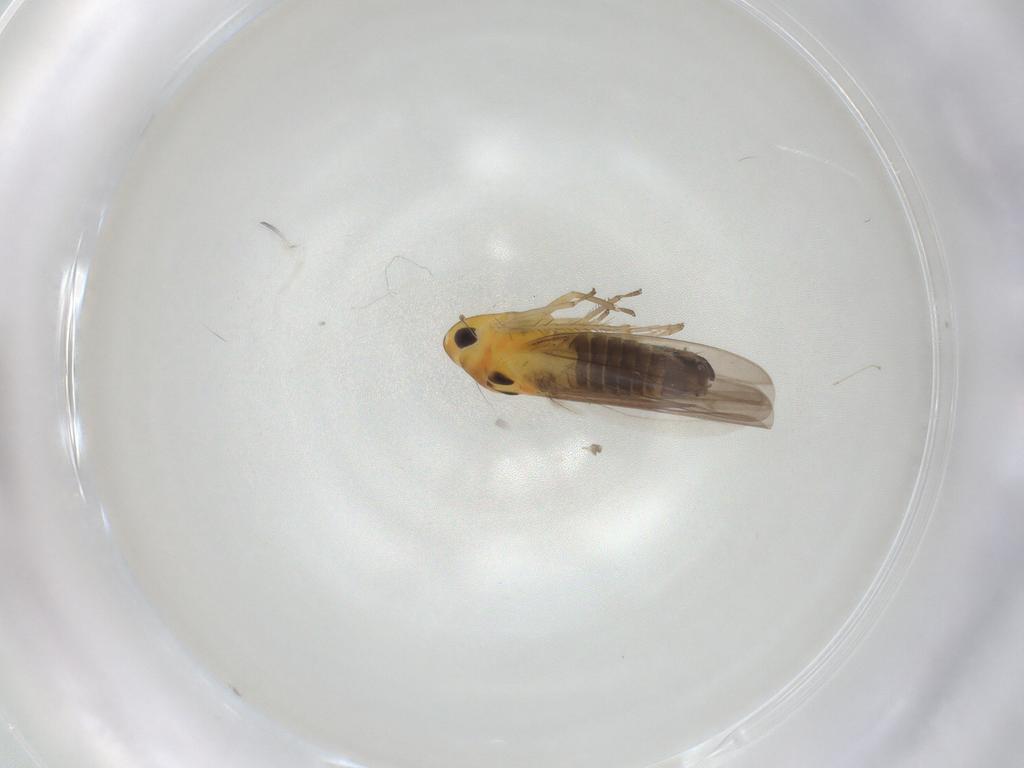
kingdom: Animalia
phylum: Arthropoda
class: Insecta
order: Hemiptera
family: Cicadellidae
